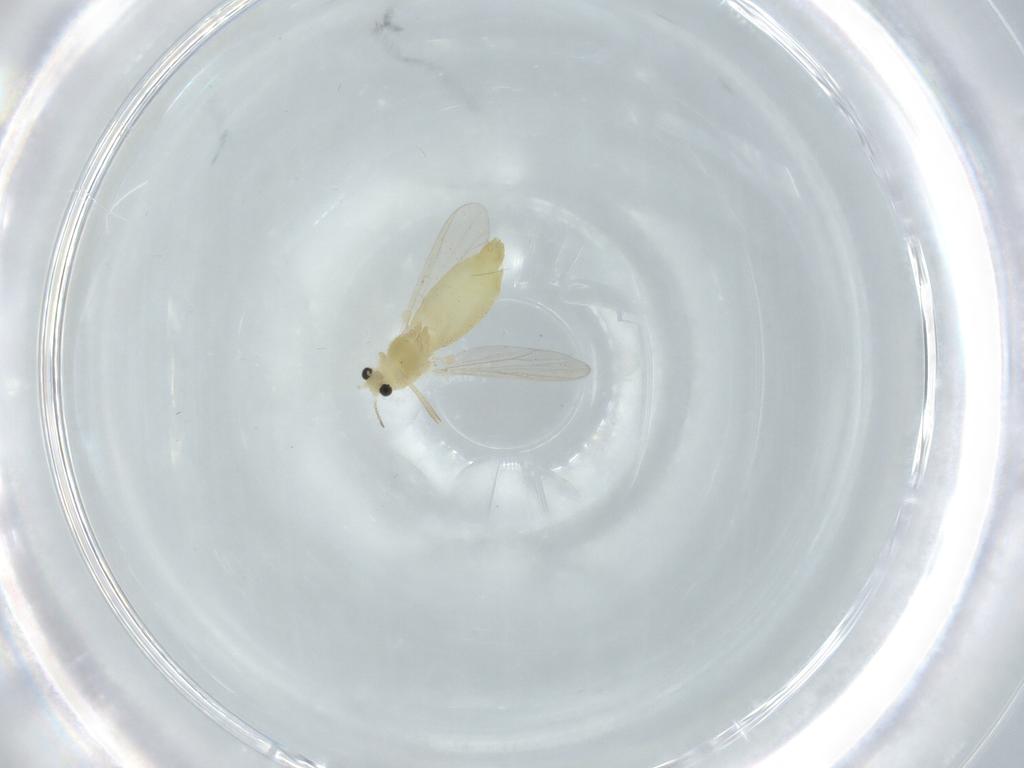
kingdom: Animalia
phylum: Arthropoda
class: Insecta
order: Diptera
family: Chironomidae
